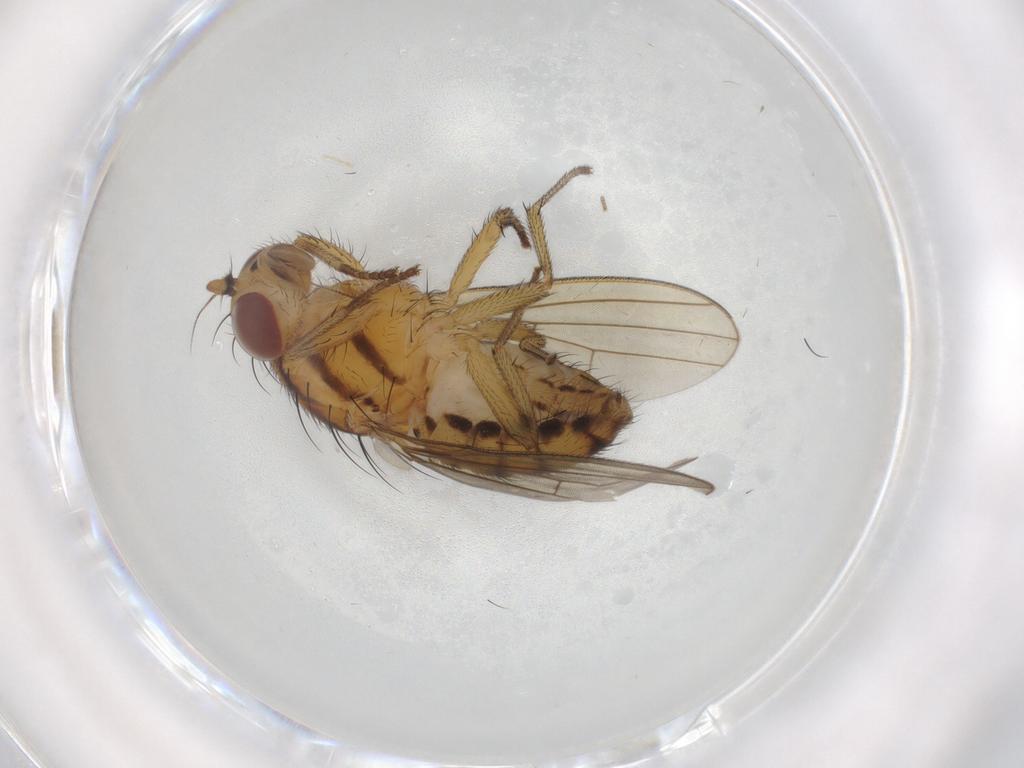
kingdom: Animalia
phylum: Arthropoda
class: Insecta
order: Diptera
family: Chironomidae
